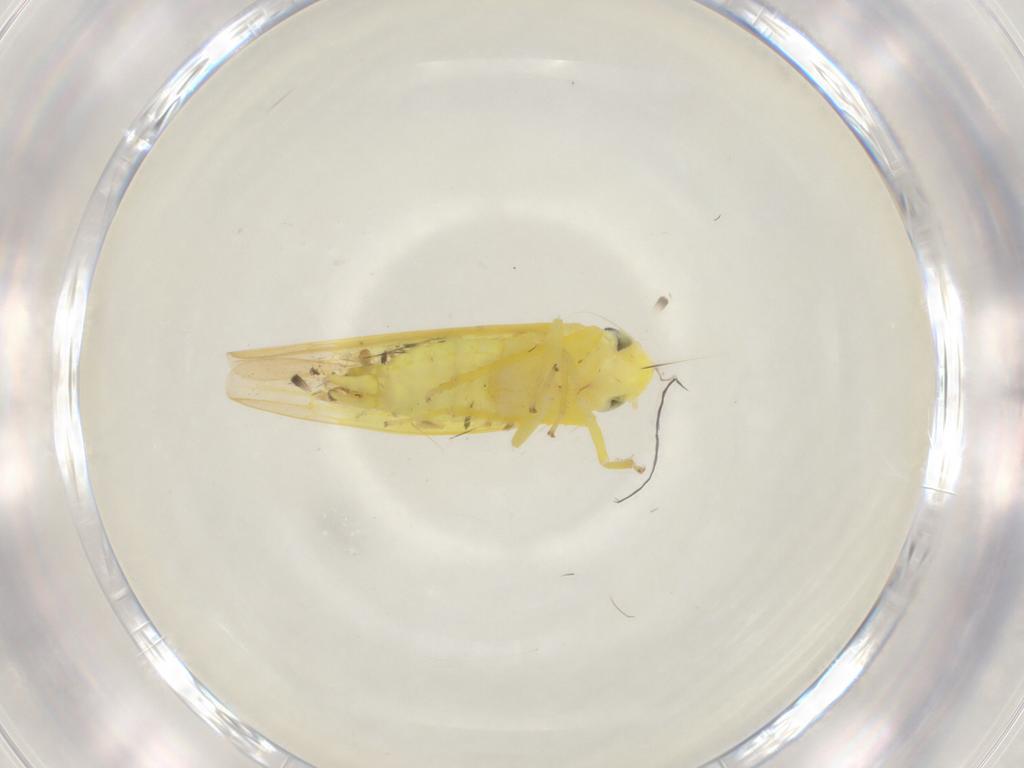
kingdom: Animalia
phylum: Arthropoda
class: Insecta
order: Hemiptera
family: Cicadellidae
